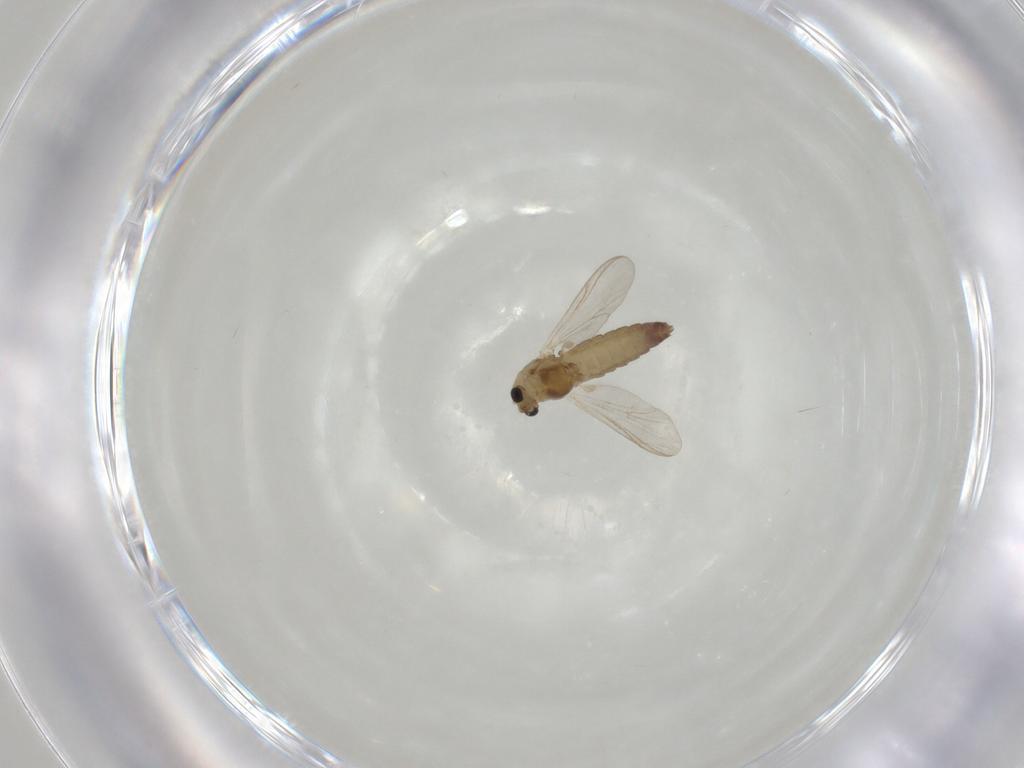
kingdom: Animalia
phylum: Arthropoda
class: Insecta
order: Diptera
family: Chironomidae
